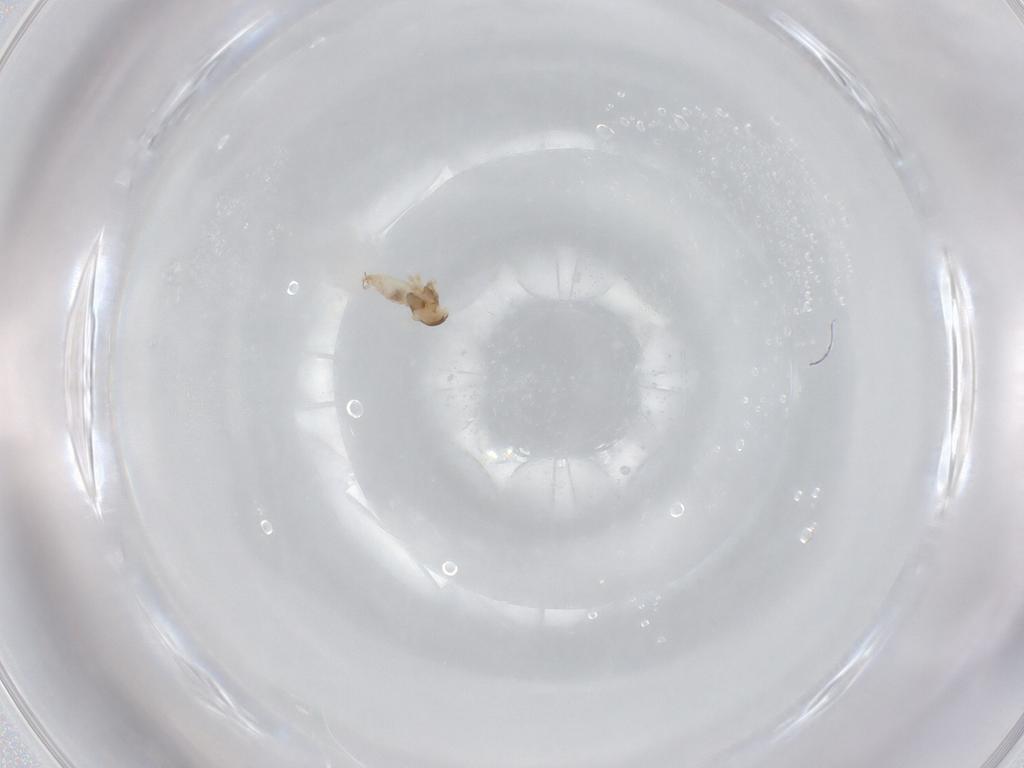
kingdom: Animalia
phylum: Arthropoda
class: Insecta
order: Diptera
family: Cecidomyiidae
